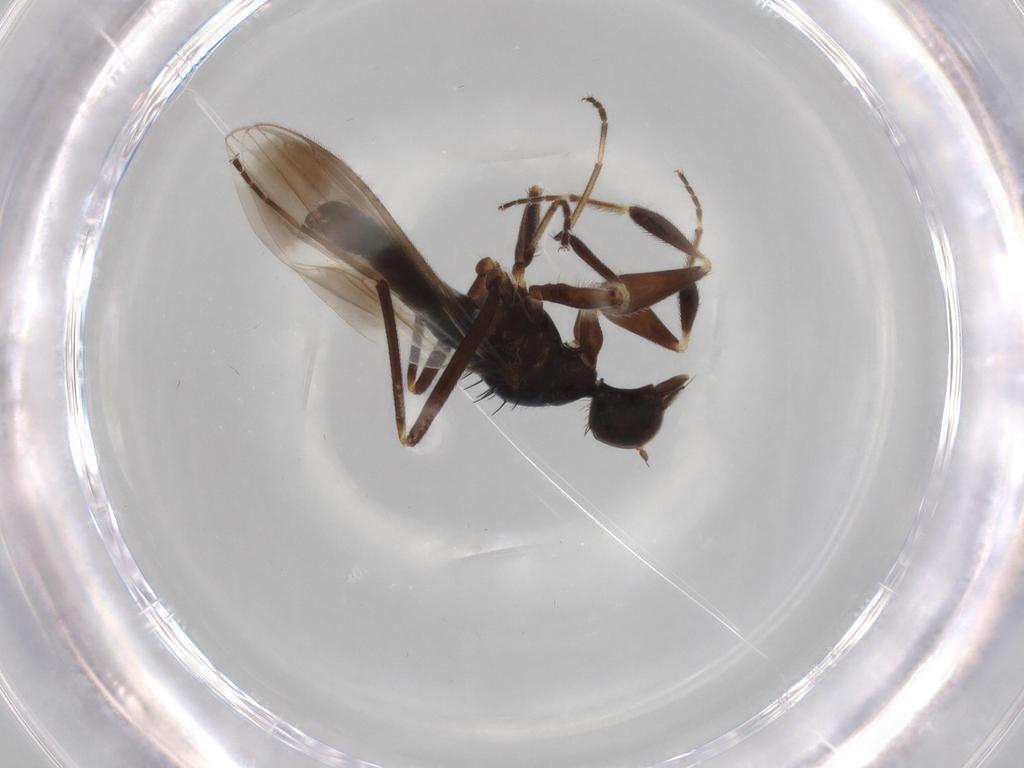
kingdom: Animalia
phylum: Arthropoda
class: Insecta
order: Diptera
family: Hybotidae
